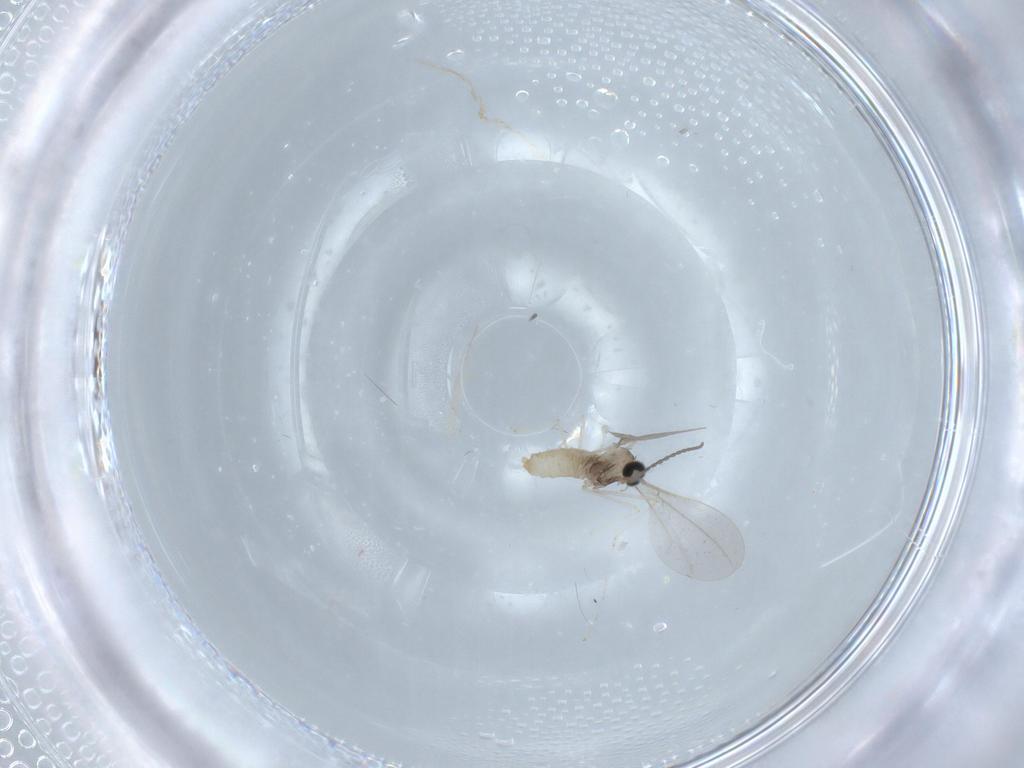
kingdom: Animalia
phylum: Arthropoda
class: Insecta
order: Diptera
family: Cecidomyiidae
